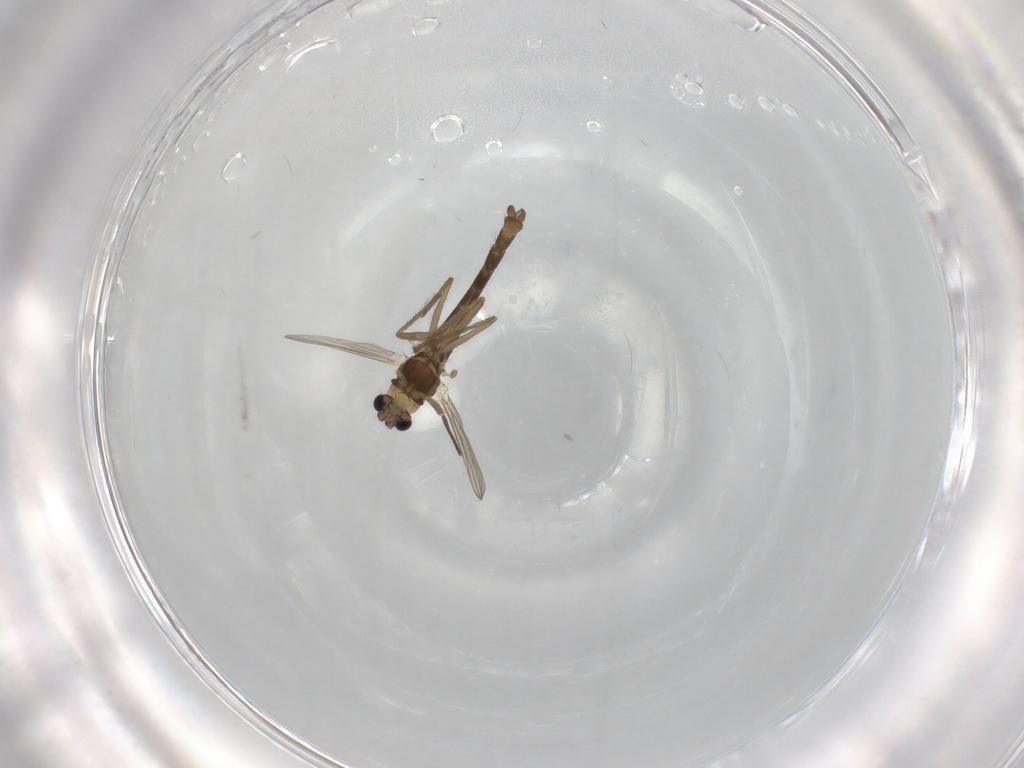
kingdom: Animalia
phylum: Arthropoda
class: Insecta
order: Diptera
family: Chironomidae
